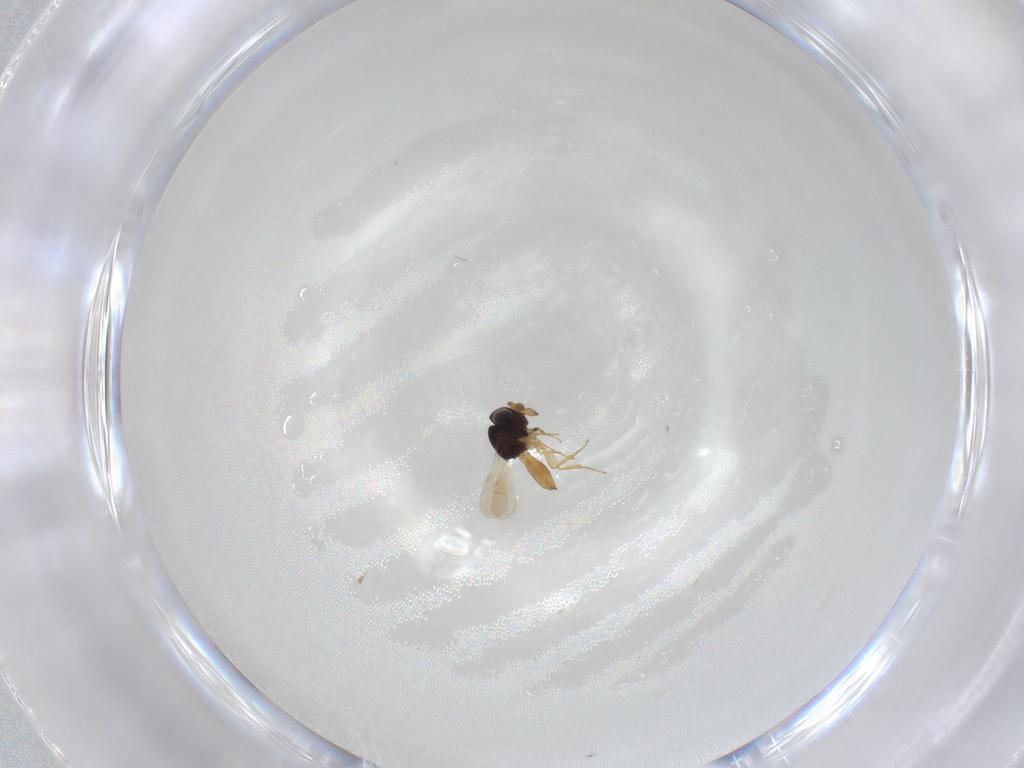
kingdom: Animalia
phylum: Arthropoda
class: Insecta
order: Hymenoptera
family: Scelionidae
